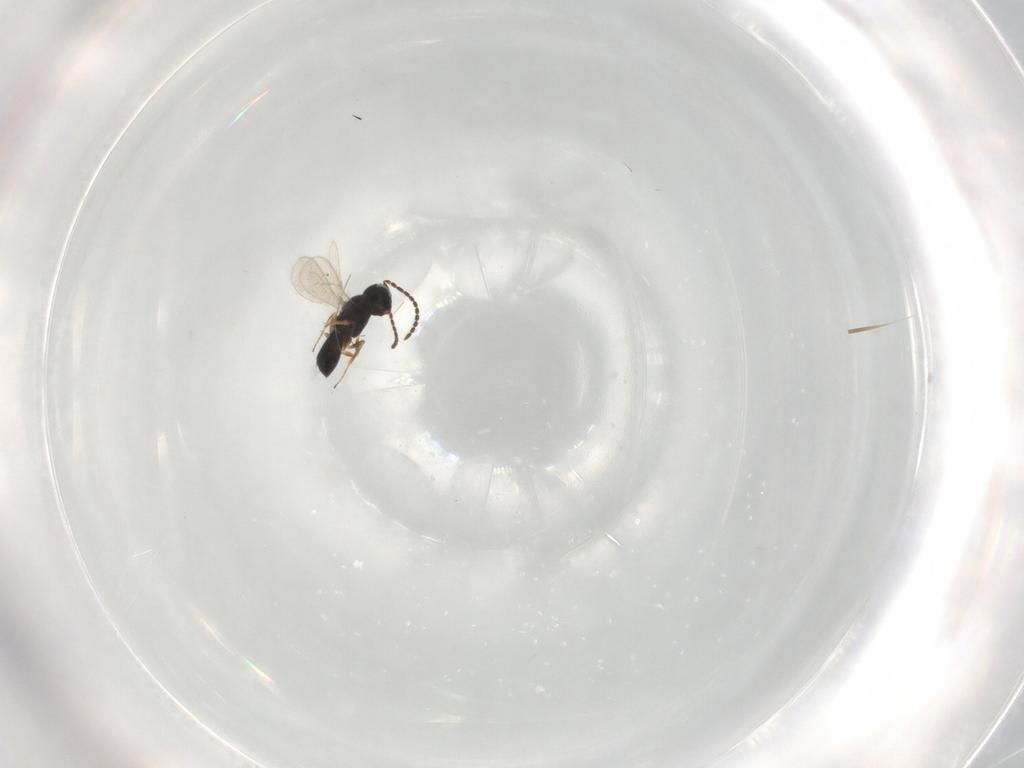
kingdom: Animalia
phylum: Arthropoda
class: Insecta
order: Hymenoptera
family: Scelionidae
